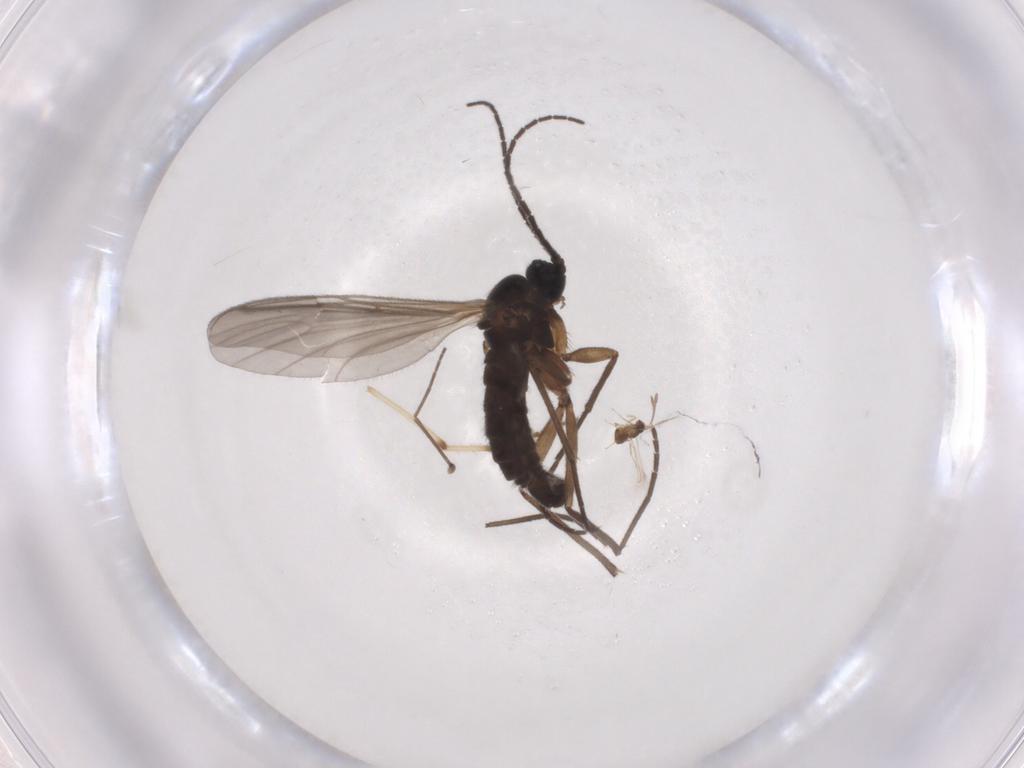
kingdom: Animalia
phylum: Arthropoda
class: Insecta
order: Diptera
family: Sciaridae
